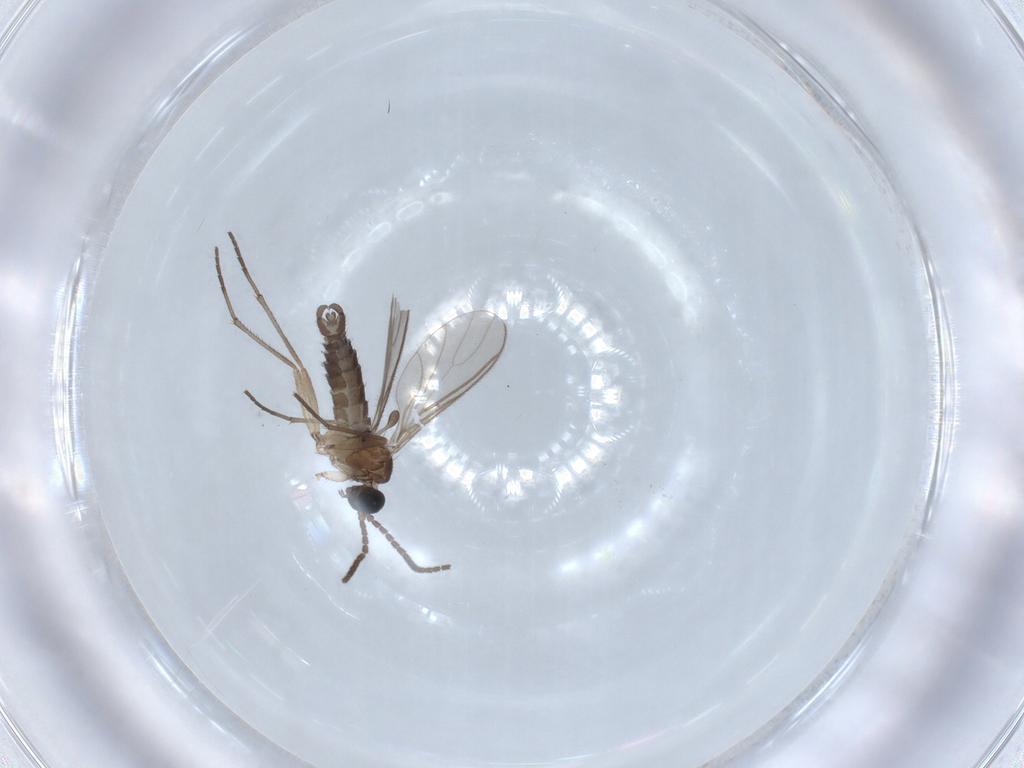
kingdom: Animalia
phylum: Arthropoda
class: Insecta
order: Diptera
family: Sciaridae
